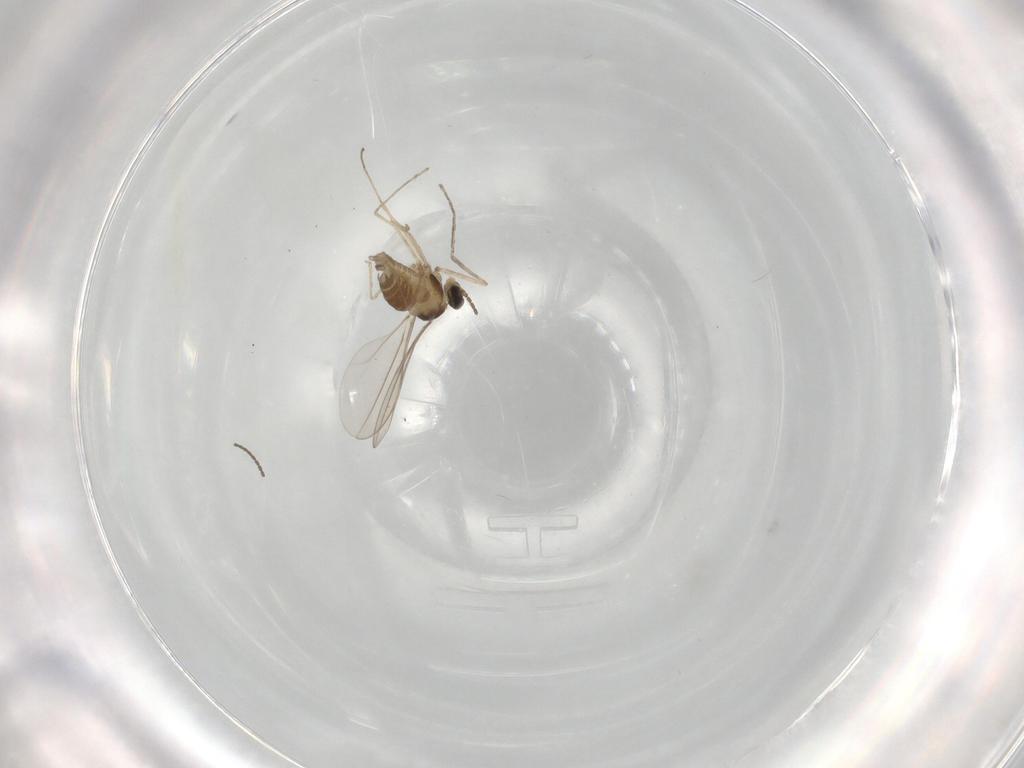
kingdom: Animalia
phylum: Arthropoda
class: Insecta
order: Diptera
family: Cecidomyiidae
